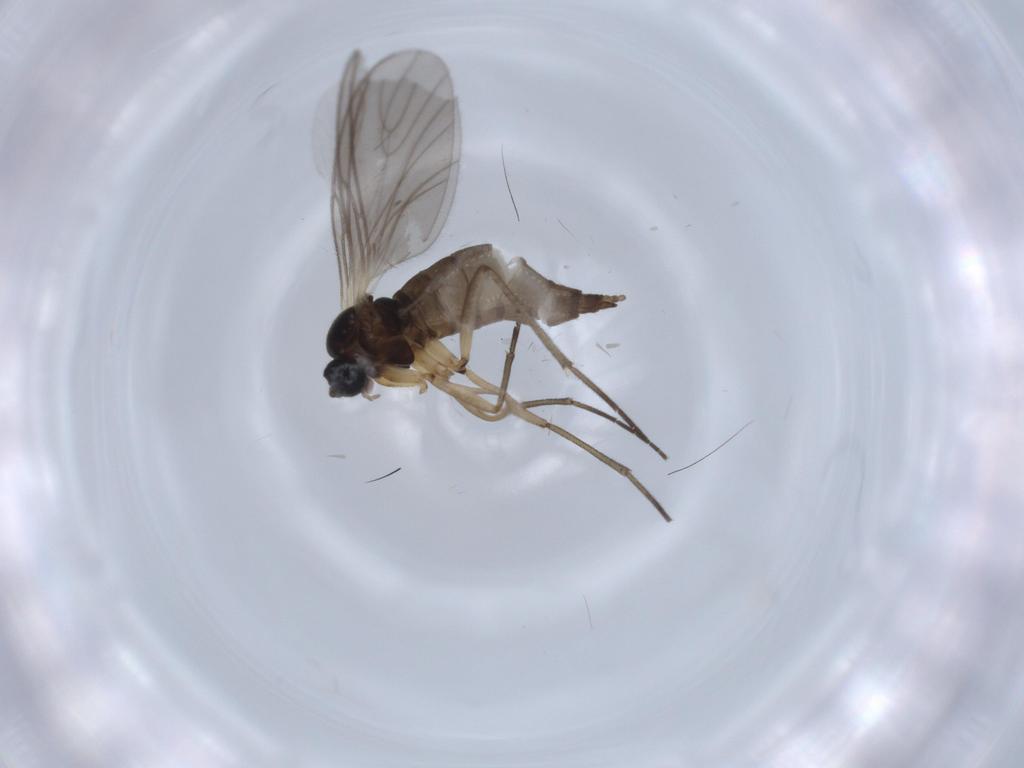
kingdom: Animalia
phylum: Arthropoda
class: Insecta
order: Diptera
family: Sciaridae
